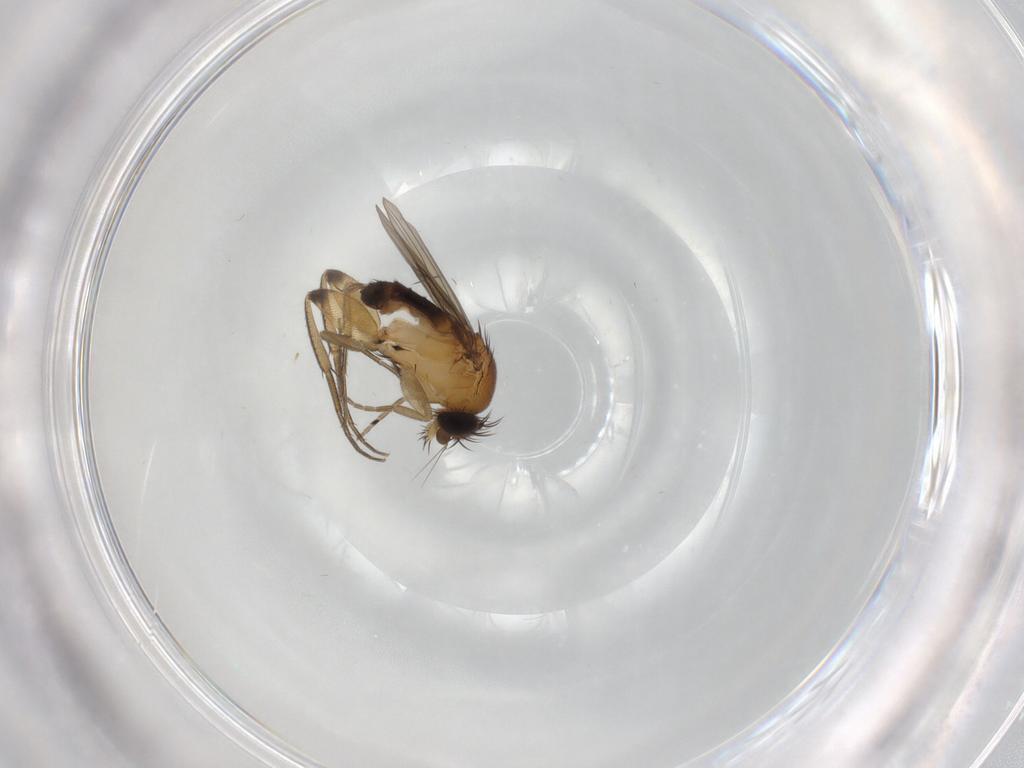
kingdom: Animalia
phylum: Arthropoda
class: Insecta
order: Diptera
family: Phoridae
